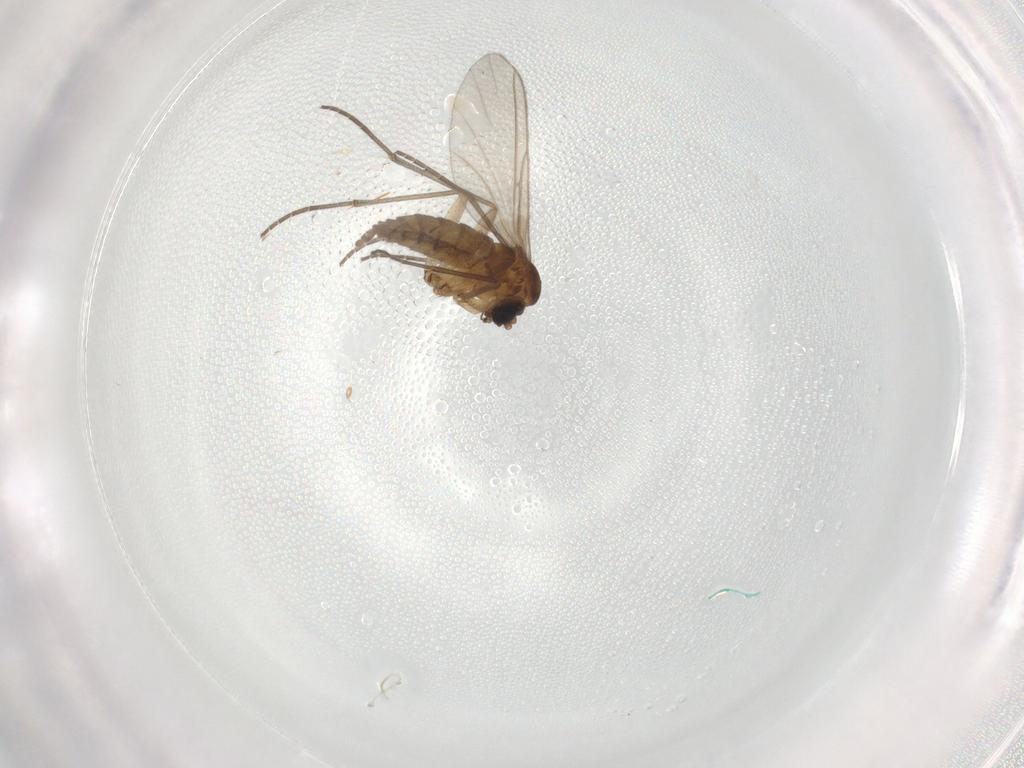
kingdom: Animalia
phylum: Arthropoda
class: Insecta
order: Diptera
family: Sciaridae
